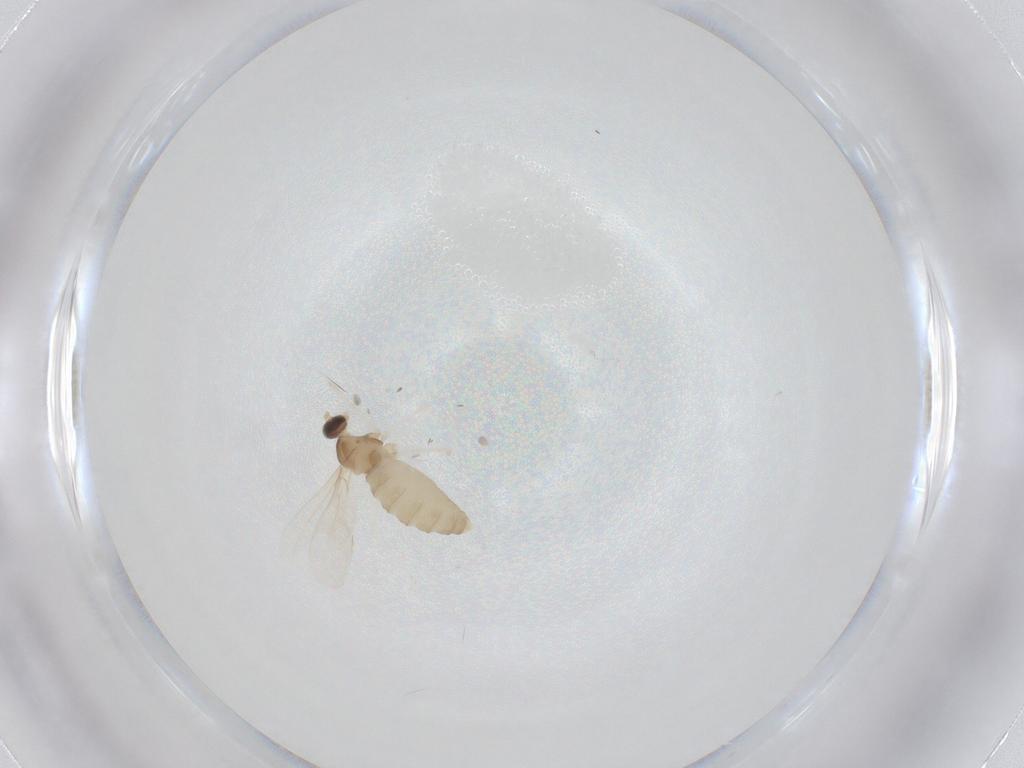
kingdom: Animalia
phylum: Arthropoda
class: Insecta
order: Diptera
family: Cecidomyiidae
